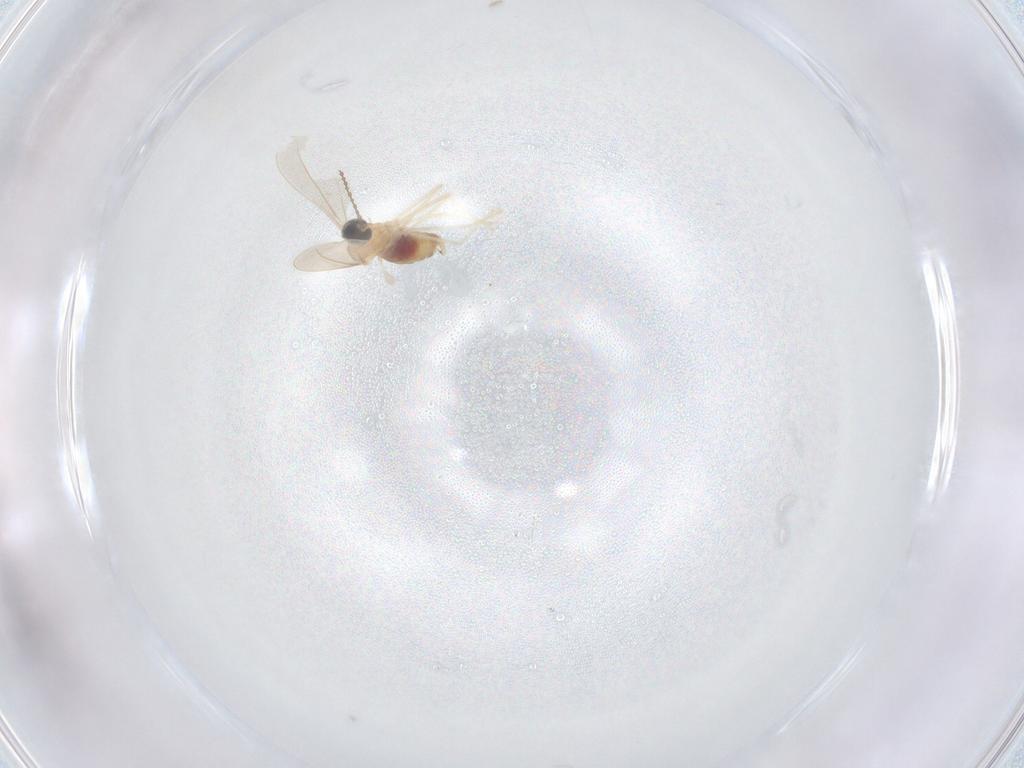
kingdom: Animalia
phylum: Arthropoda
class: Insecta
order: Diptera
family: Cecidomyiidae
